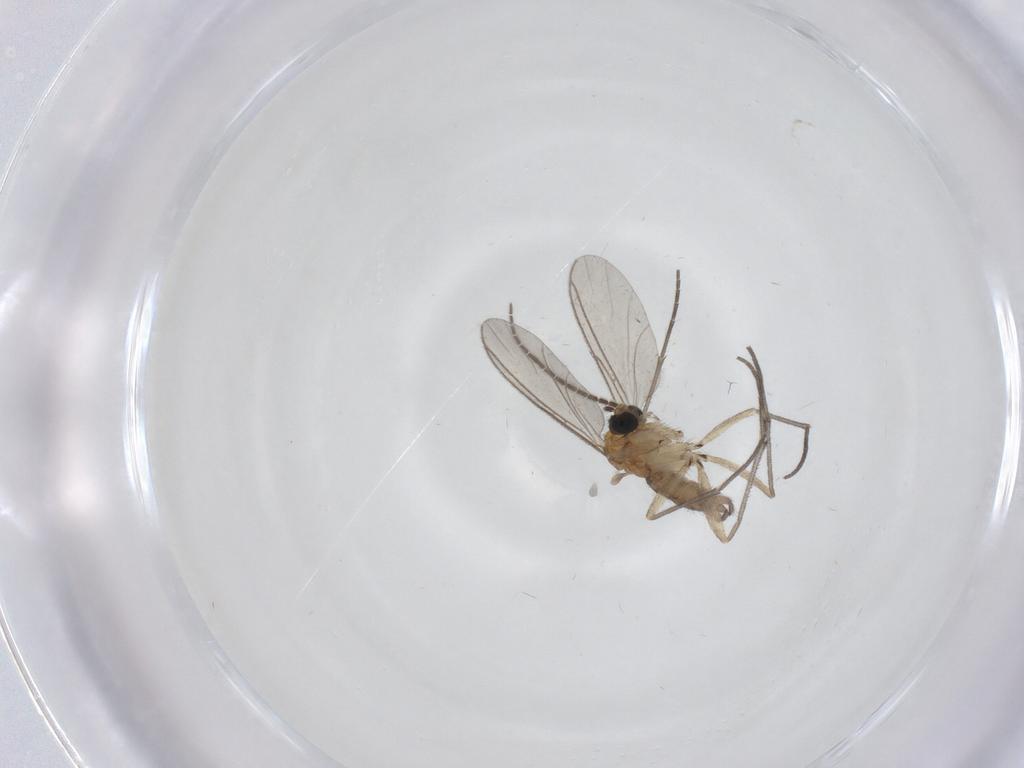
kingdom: Animalia
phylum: Arthropoda
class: Insecta
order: Diptera
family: Sciaridae
